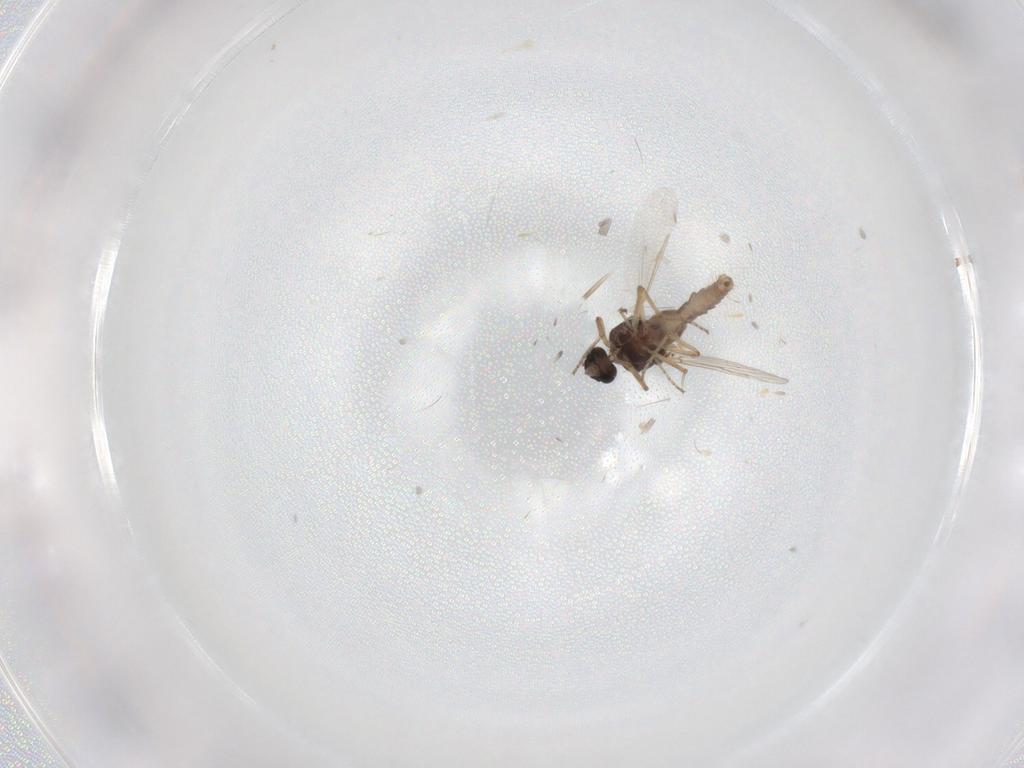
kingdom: Animalia
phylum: Arthropoda
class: Insecta
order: Diptera
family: Ceratopogonidae
